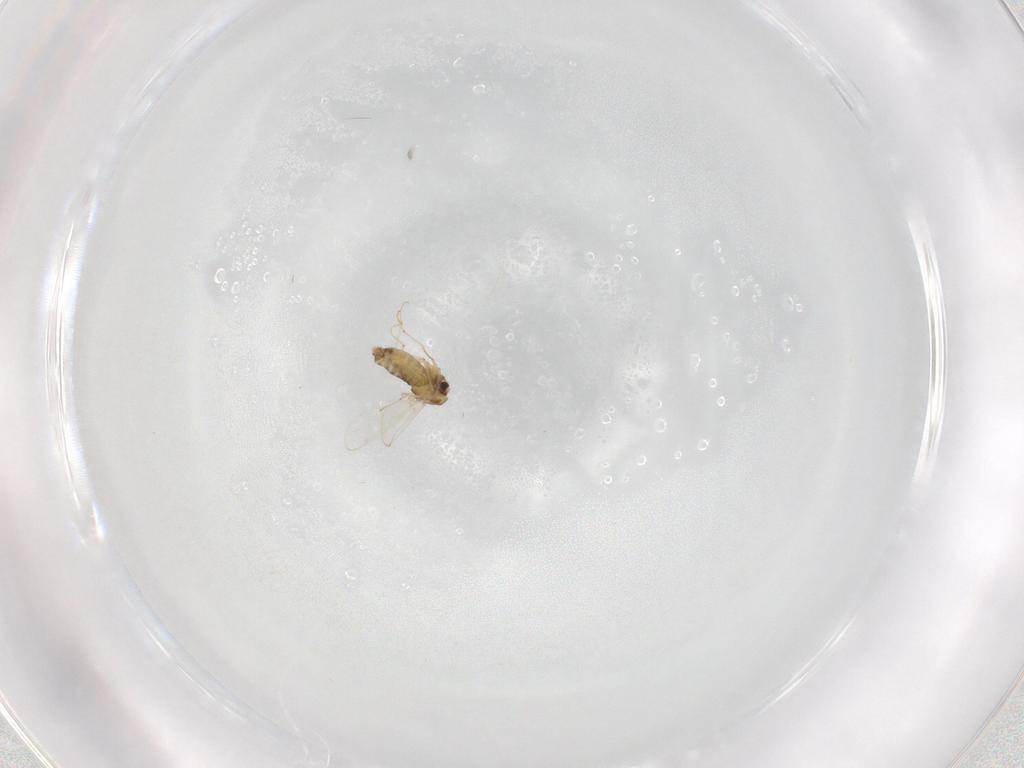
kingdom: Animalia
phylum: Arthropoda
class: Insecta
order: Diptera
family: Chironomidae
